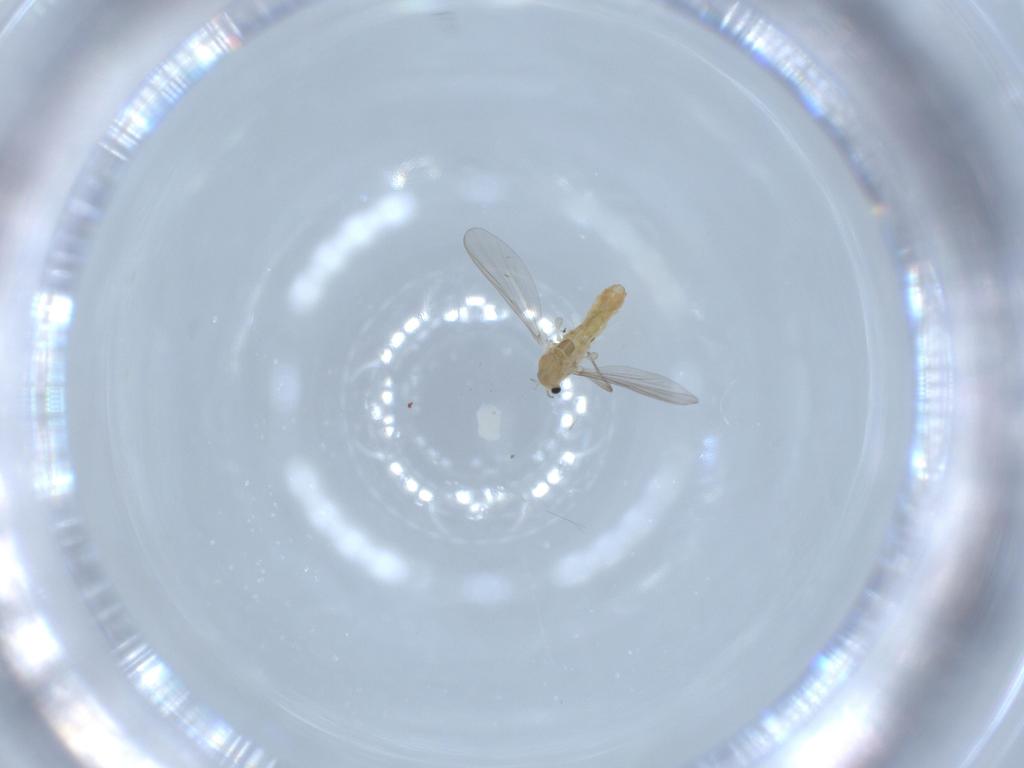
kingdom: Animalia
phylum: Arthropoda
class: Insecta
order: Diptera
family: Chironomidae
